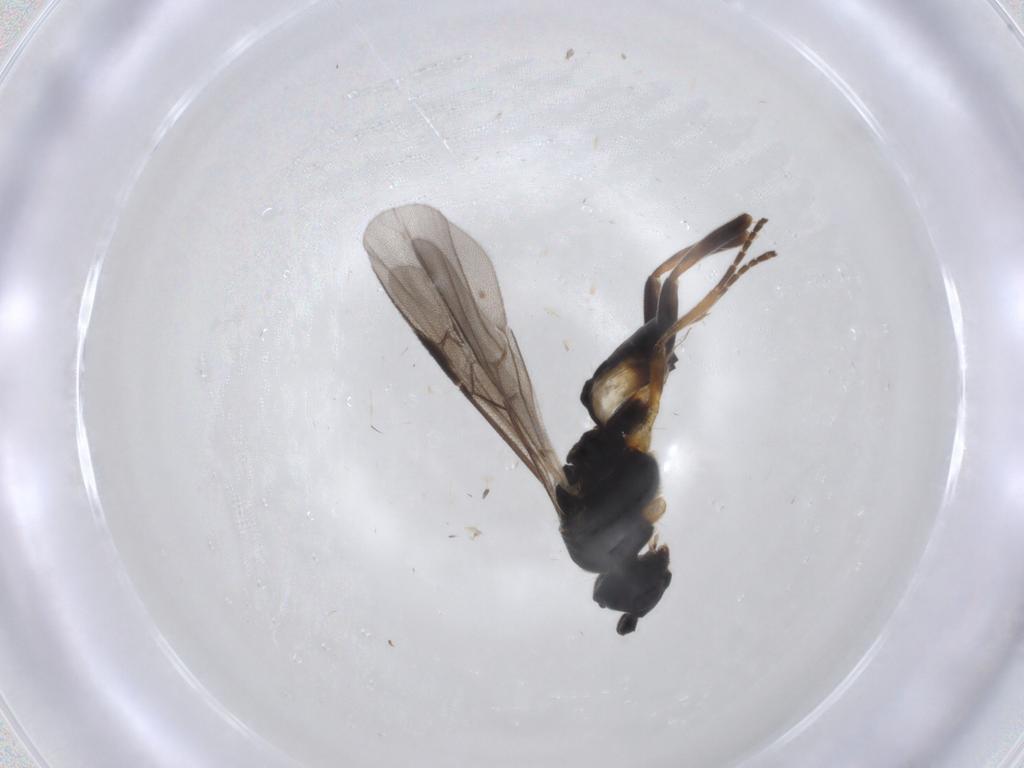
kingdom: Animalia
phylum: Arthropoda
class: Insecta
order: Hymenoptera
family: Braconidae
